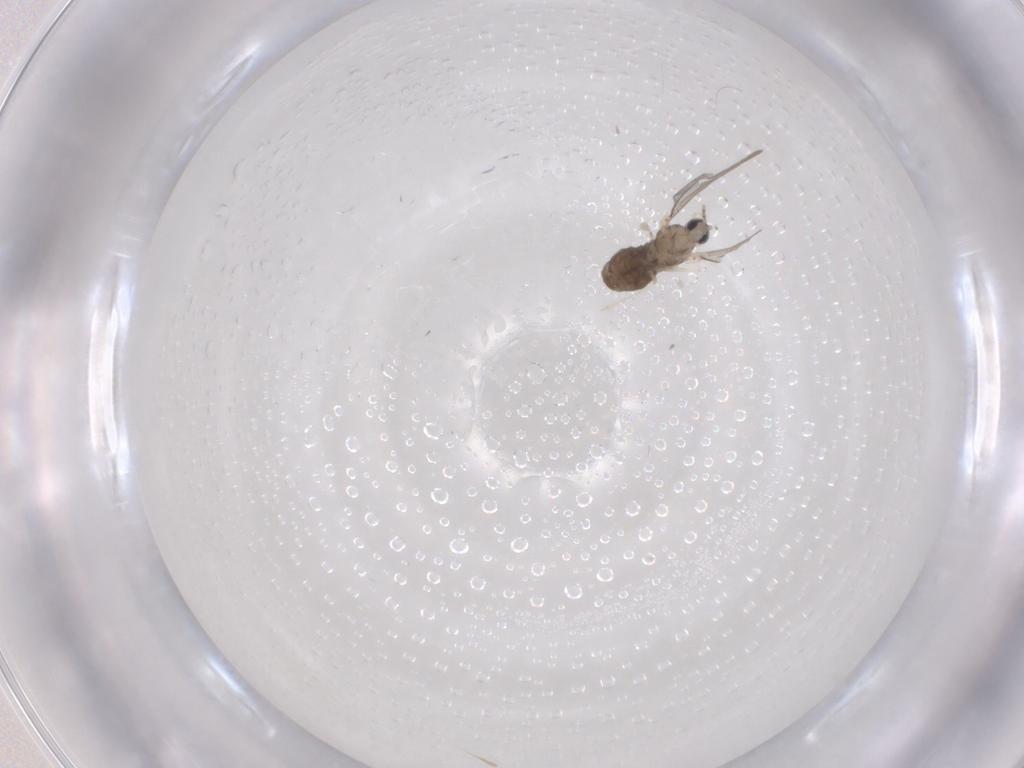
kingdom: Animalia
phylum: Arthropoda
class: Insecta
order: Diptera
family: Cecidomyiidae
